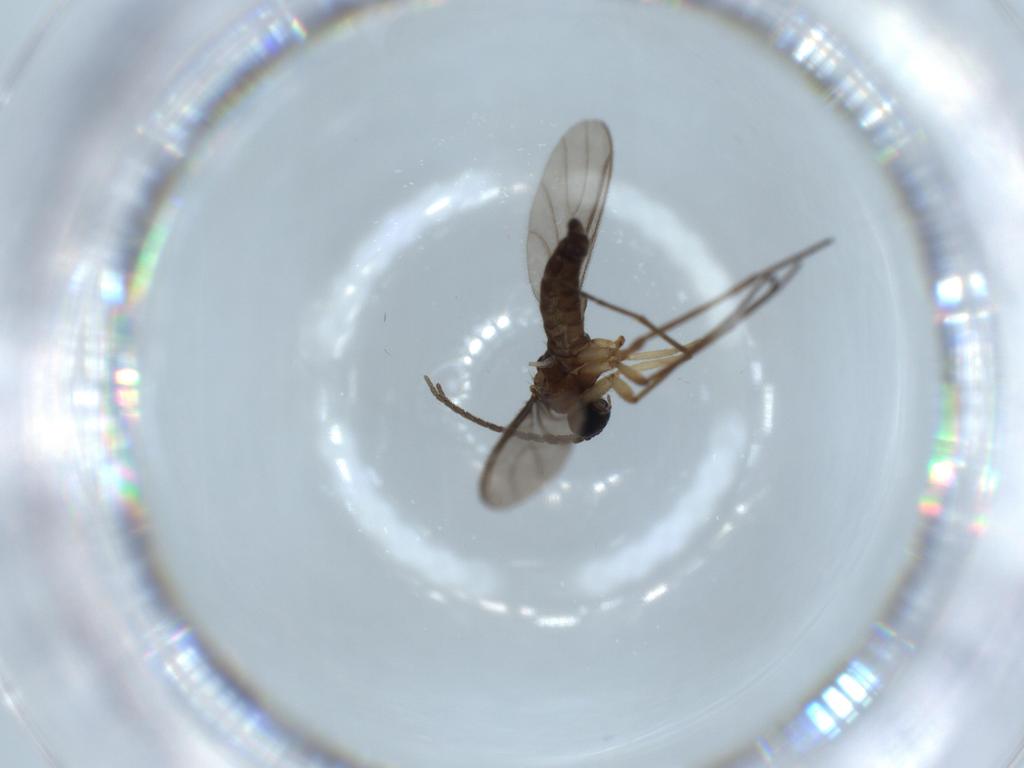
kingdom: Animalia
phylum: Arthropoda
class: Insecta
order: Diptera
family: Sciaridae
